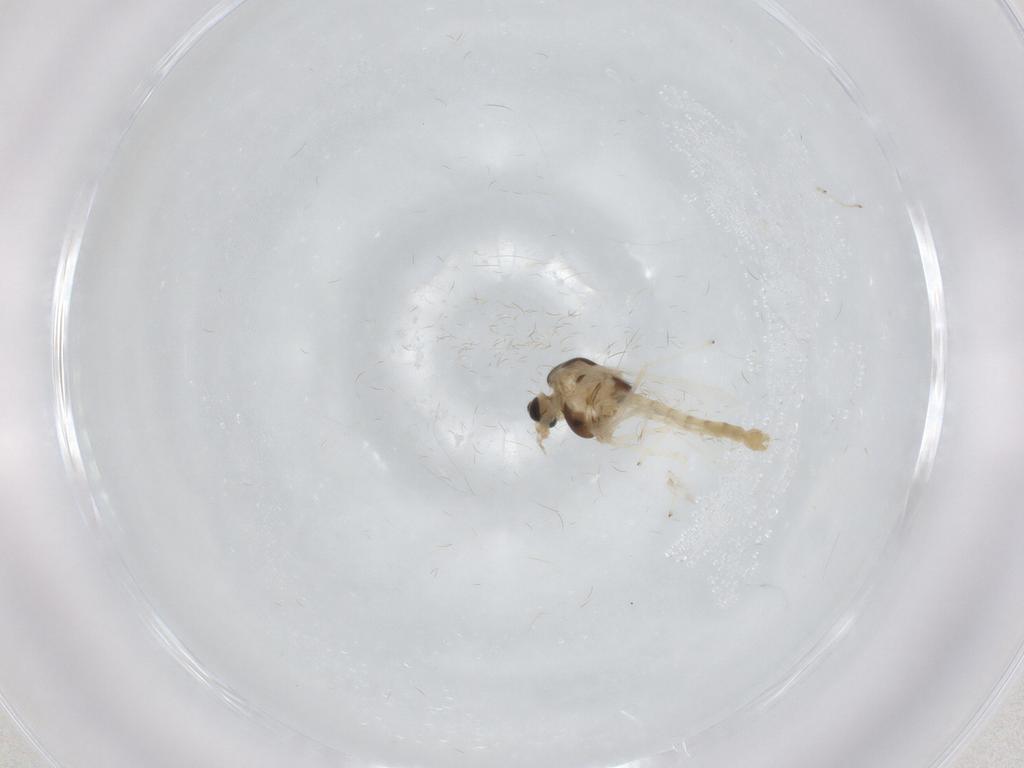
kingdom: Animalia
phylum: Arthropoda
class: Insecta
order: Diptera
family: Chironomidae
